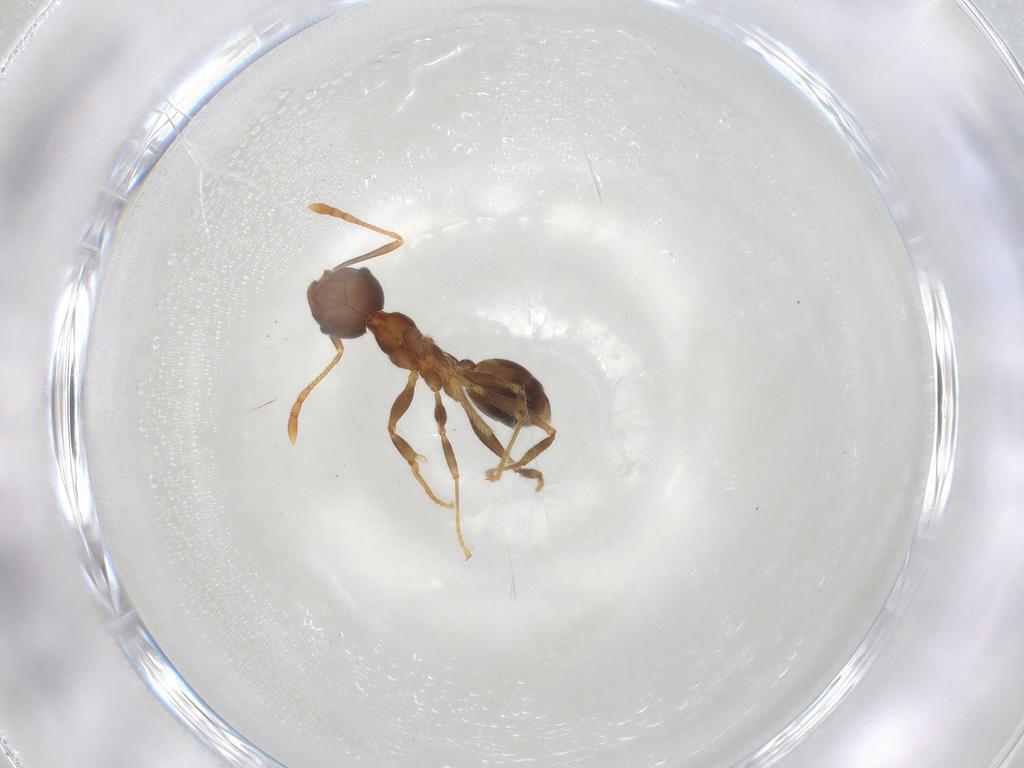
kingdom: Animalia
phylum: Arthropoda
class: Insecta
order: Hymenoptera
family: Formicidae
